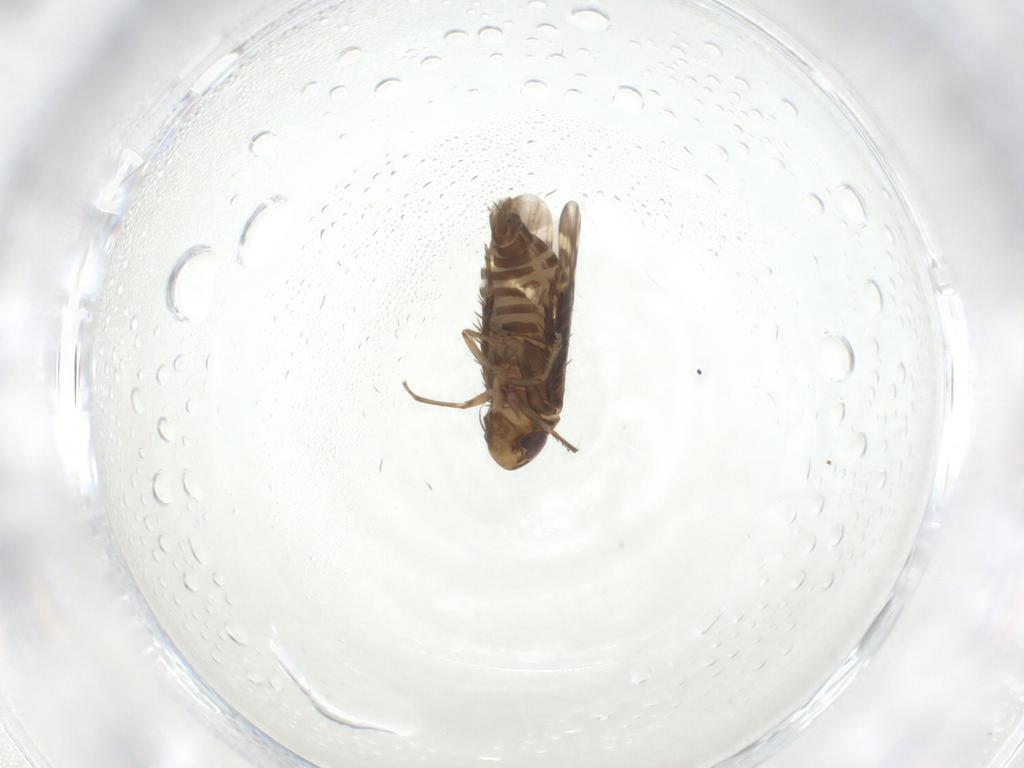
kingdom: Animalia
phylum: Arthropoda
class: Insecta
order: Hemiptera
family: Cicadellidae
